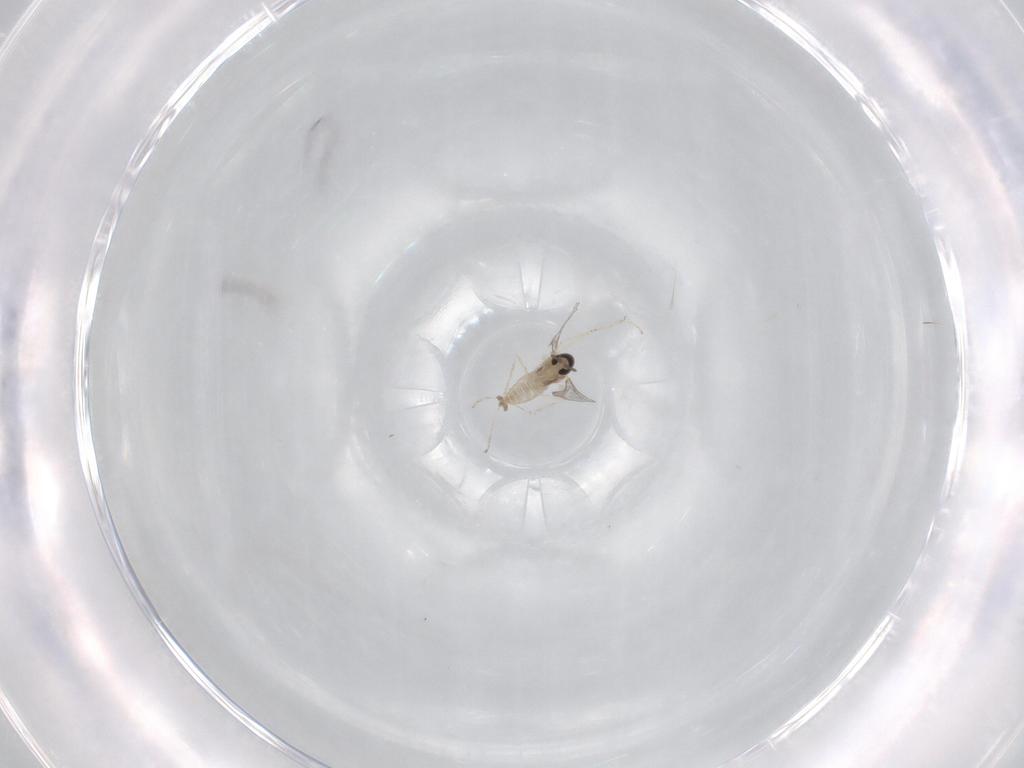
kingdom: Animalia
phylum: Arthropoda
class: Insecta
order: Diptera
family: Cecidomyiidae
